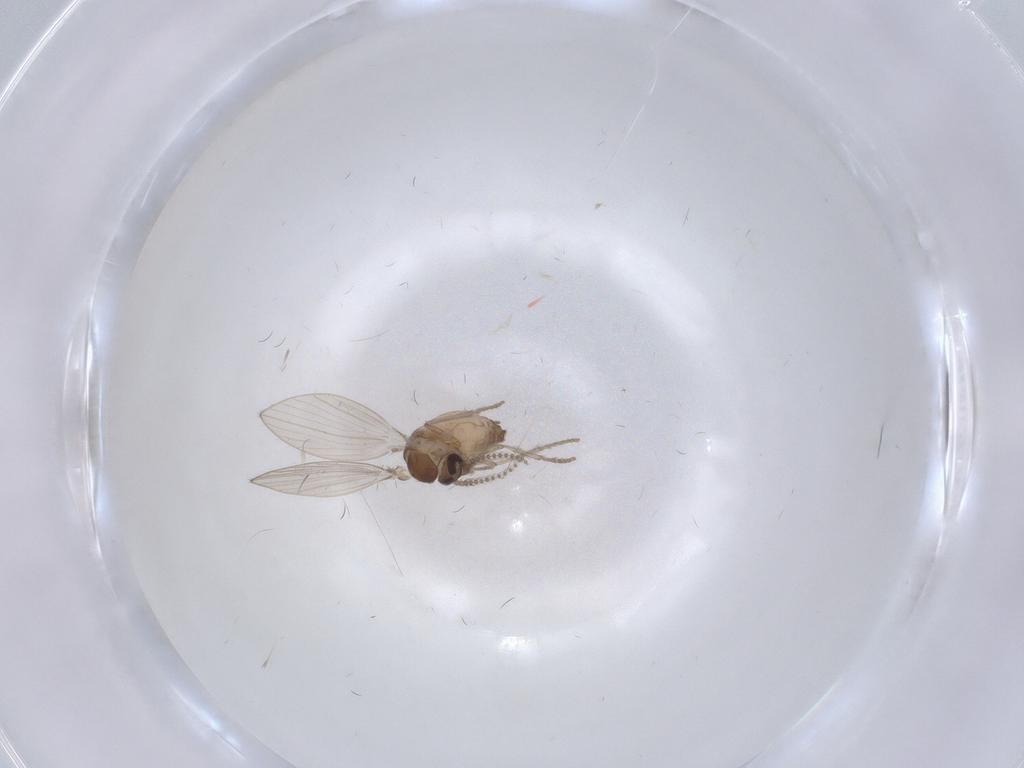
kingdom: Animalia
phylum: Arthropoda
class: Insecta
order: Diptera
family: Psychodidae
